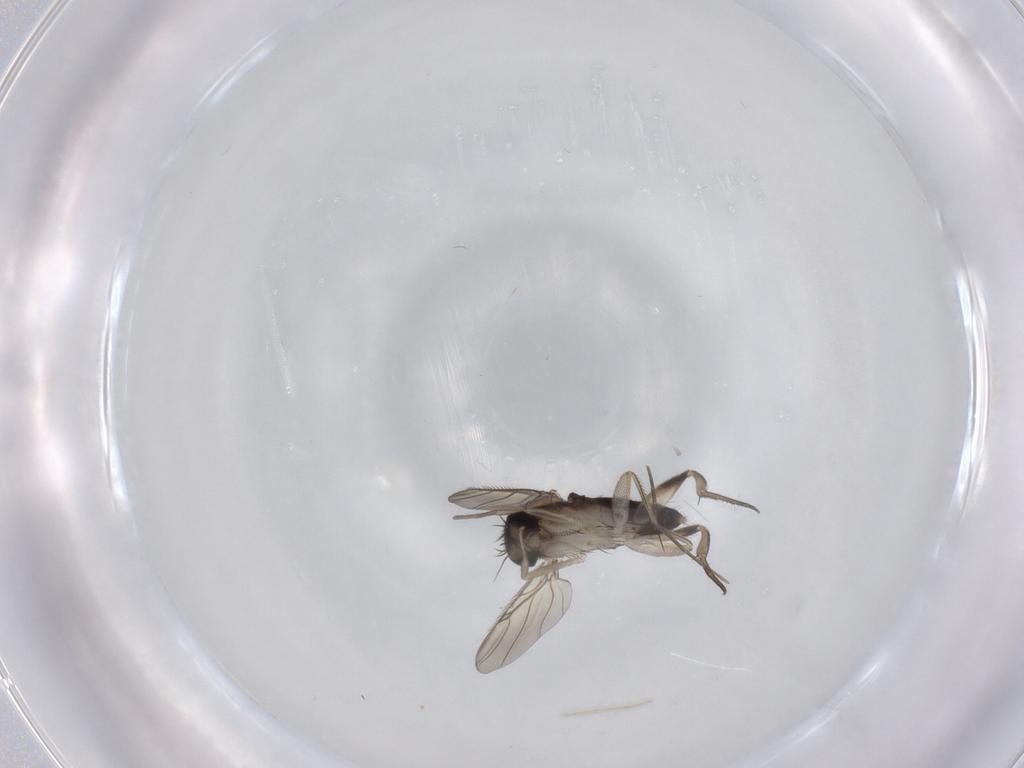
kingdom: Animalia
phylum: Arthropoda
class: Insecta
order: Diptera
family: Phoridae
